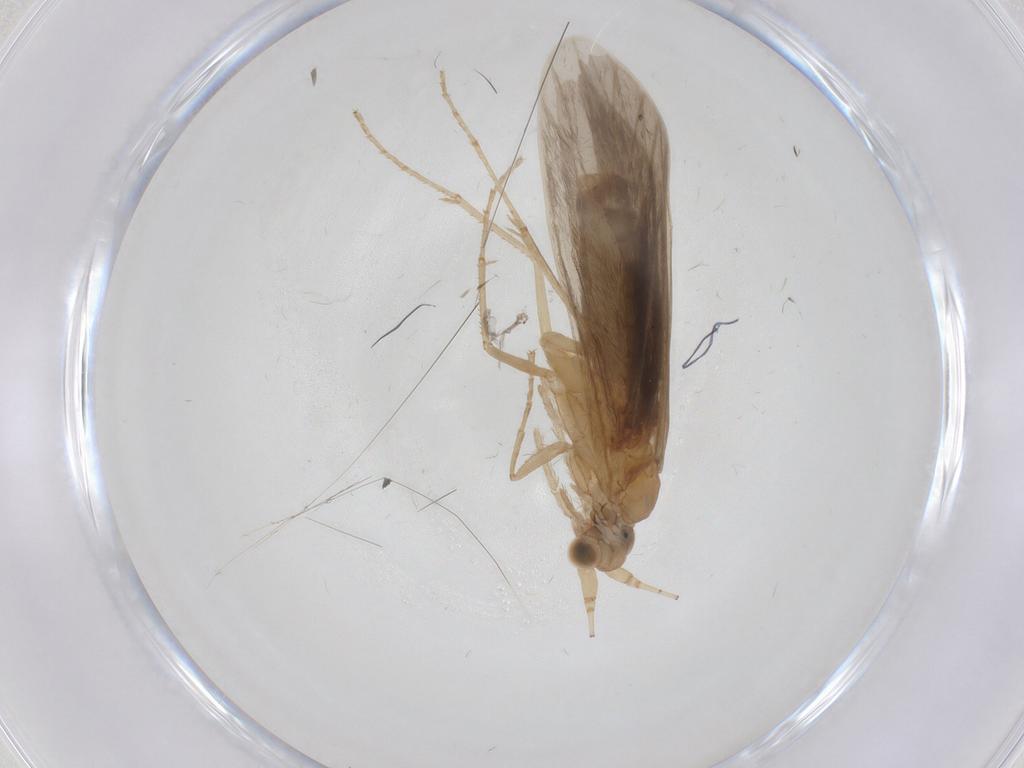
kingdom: Animalia
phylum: Arthropoda
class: Insecta
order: Trichoptera
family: Leptoceridae
